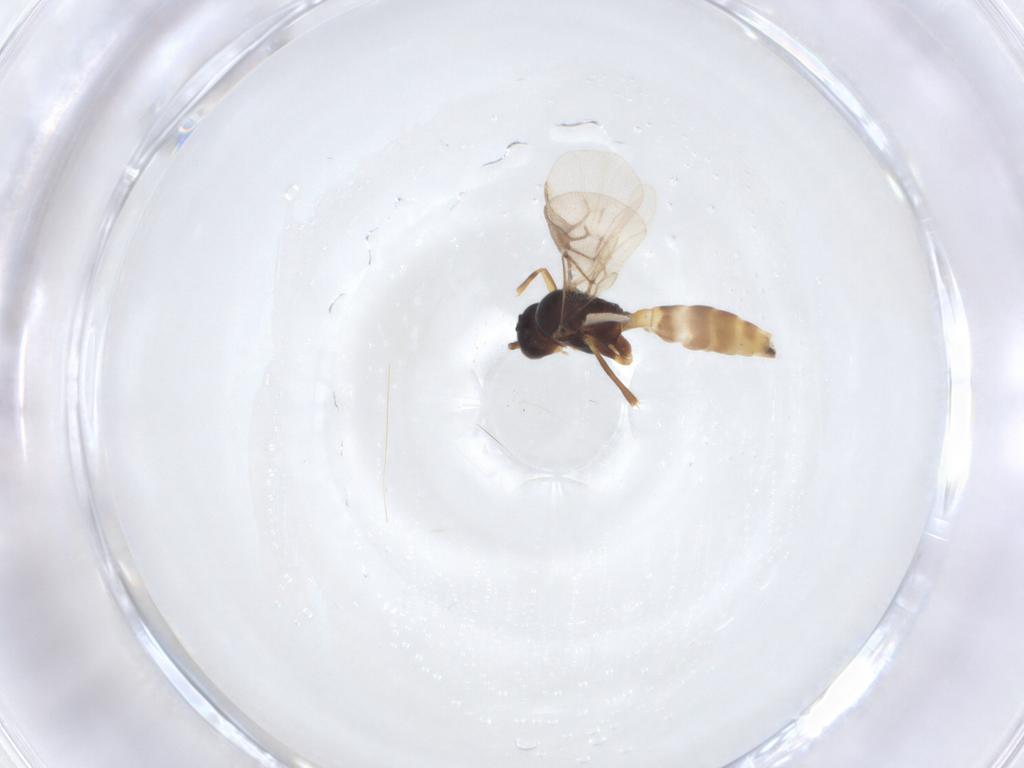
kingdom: Animalia
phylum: Arthropoda
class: Insecta
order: Hymenoptera
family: Braconidae
